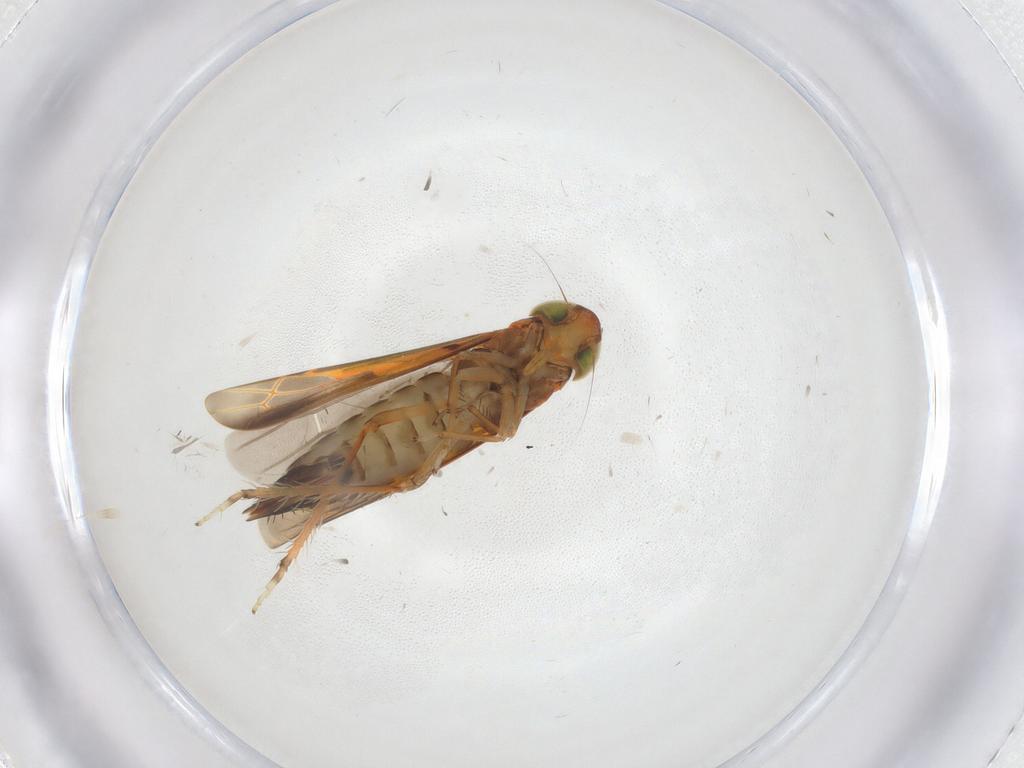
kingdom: Animalia
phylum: Arthropoda
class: Insecta
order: Hemiptera
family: Cicadellidae
